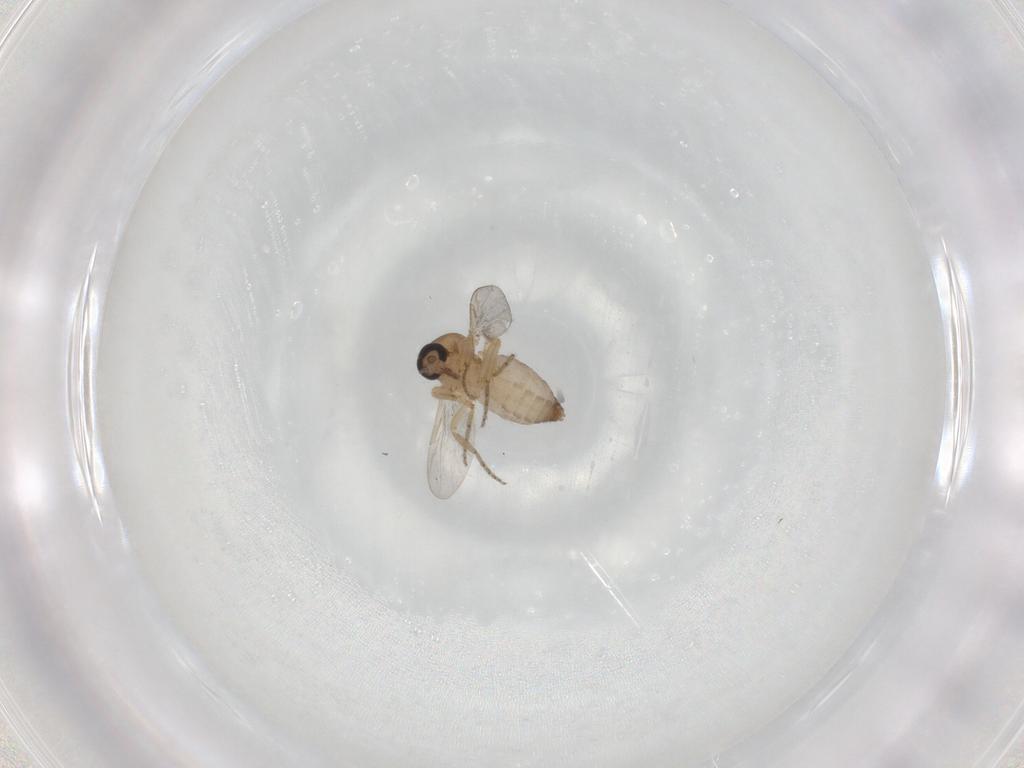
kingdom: Animalia
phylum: Arthropoda
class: Insecta
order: Diptera
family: Ceratopogonidae
